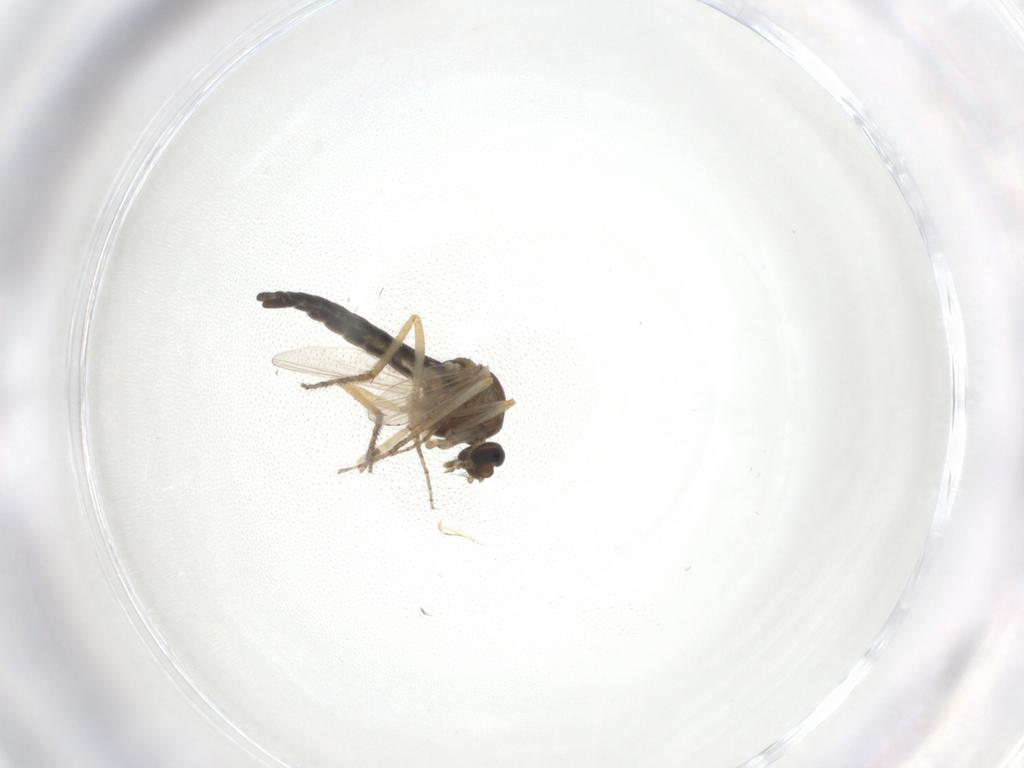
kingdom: Animalia
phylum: Arthropoda
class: Insecta
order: Diptera
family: Ceratopogonidae
